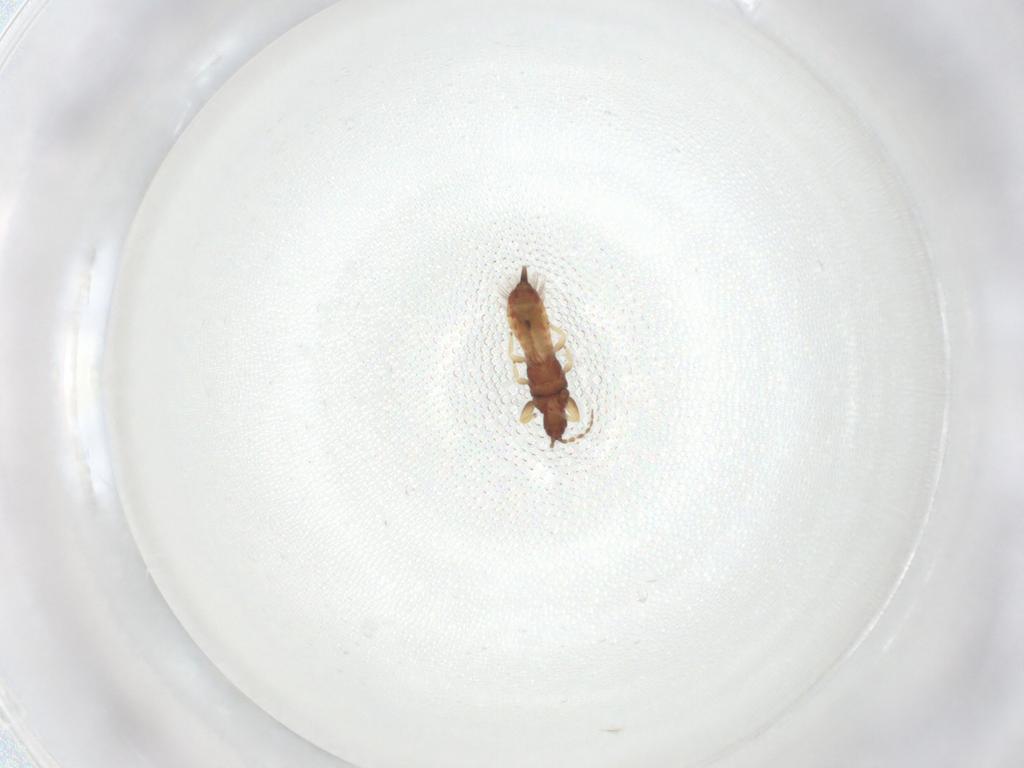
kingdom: Animalia
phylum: Arthropoda
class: Insecta
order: Thysanoptera
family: Phlaeothripidae
